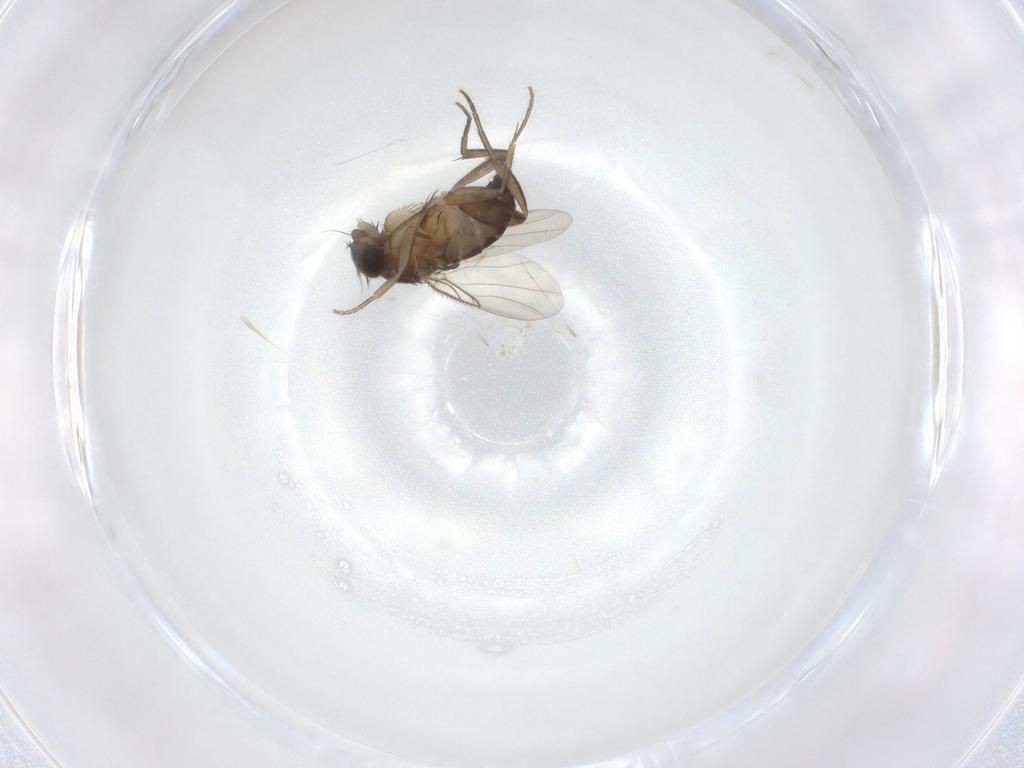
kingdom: Animalia
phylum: Arthropoda
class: Insecta
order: Diptera
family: Phoridae
